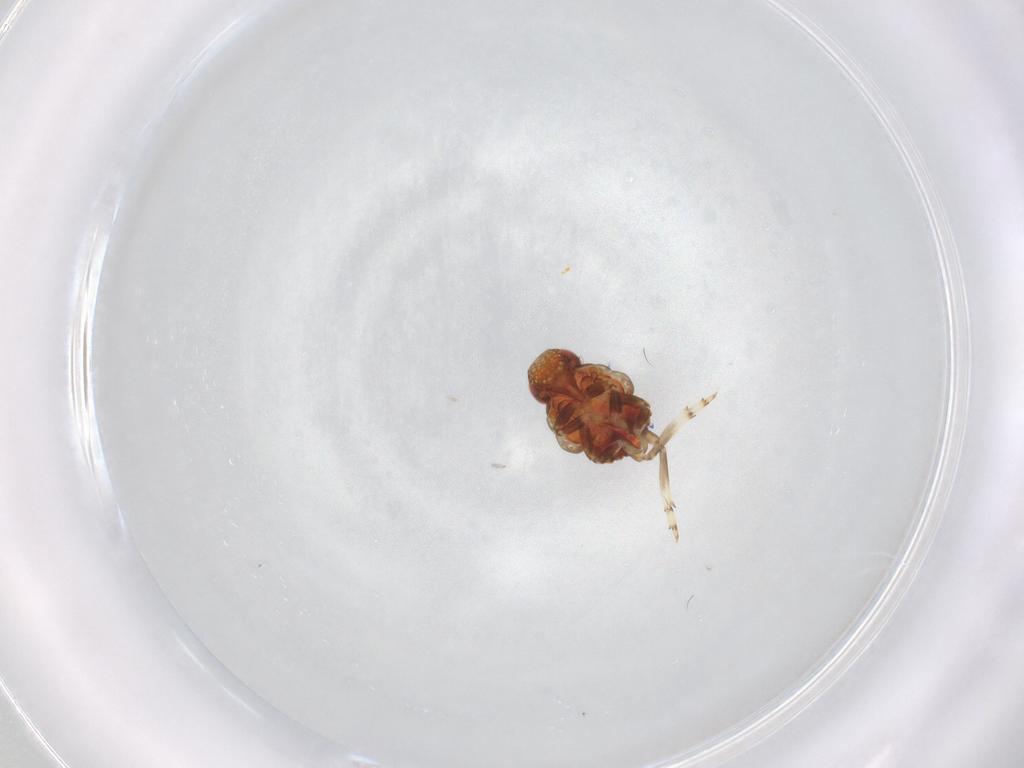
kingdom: Animalia
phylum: Arthropoda
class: Insecta
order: Hemiptera
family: Issidae
